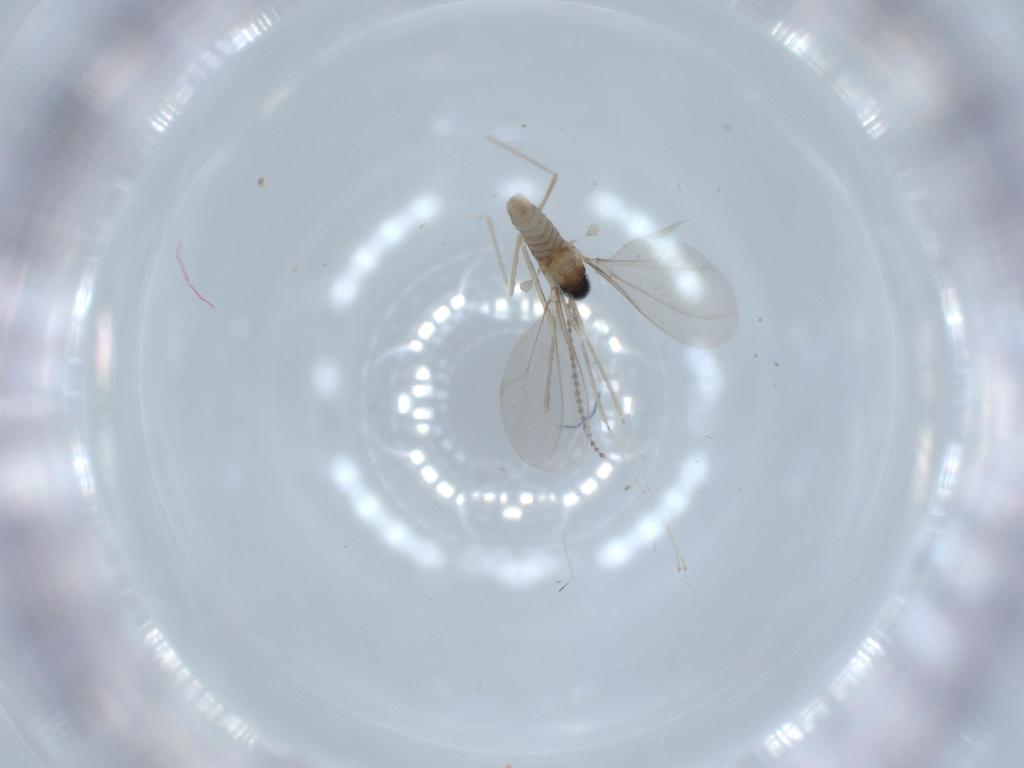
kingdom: Animalia
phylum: Arthropoda
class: Insecta
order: Diptera
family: Cecidomyiidae
